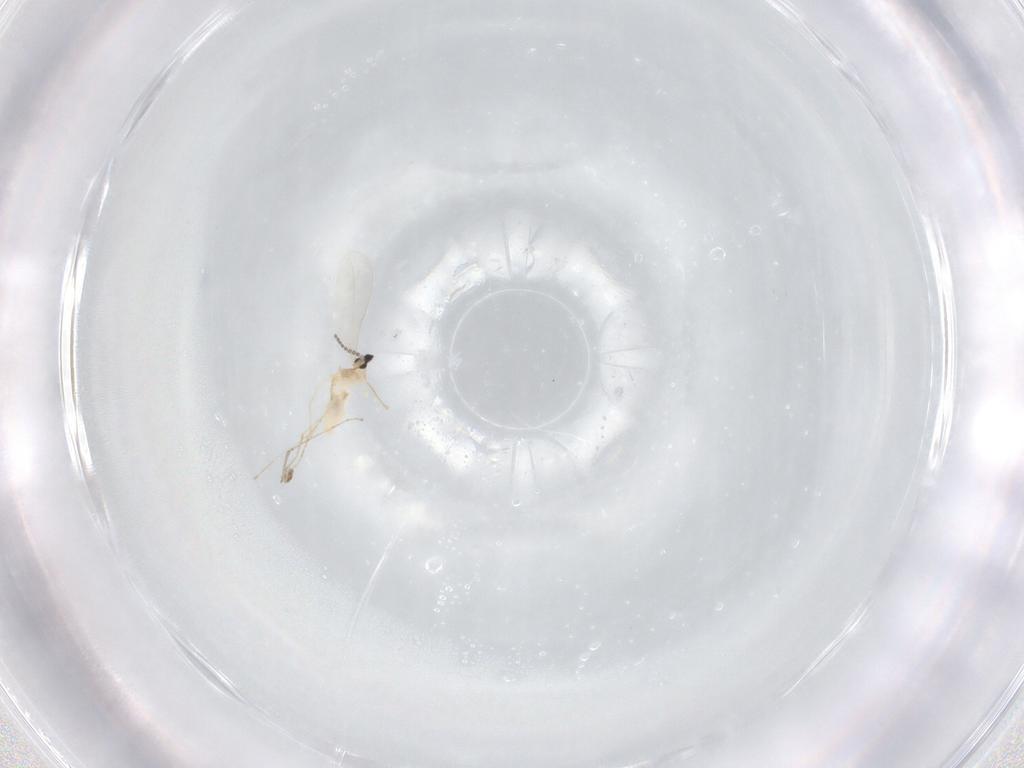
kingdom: Animalia
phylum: Arthropoda
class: Insecta
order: Diptera
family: Cecidomyiidae
